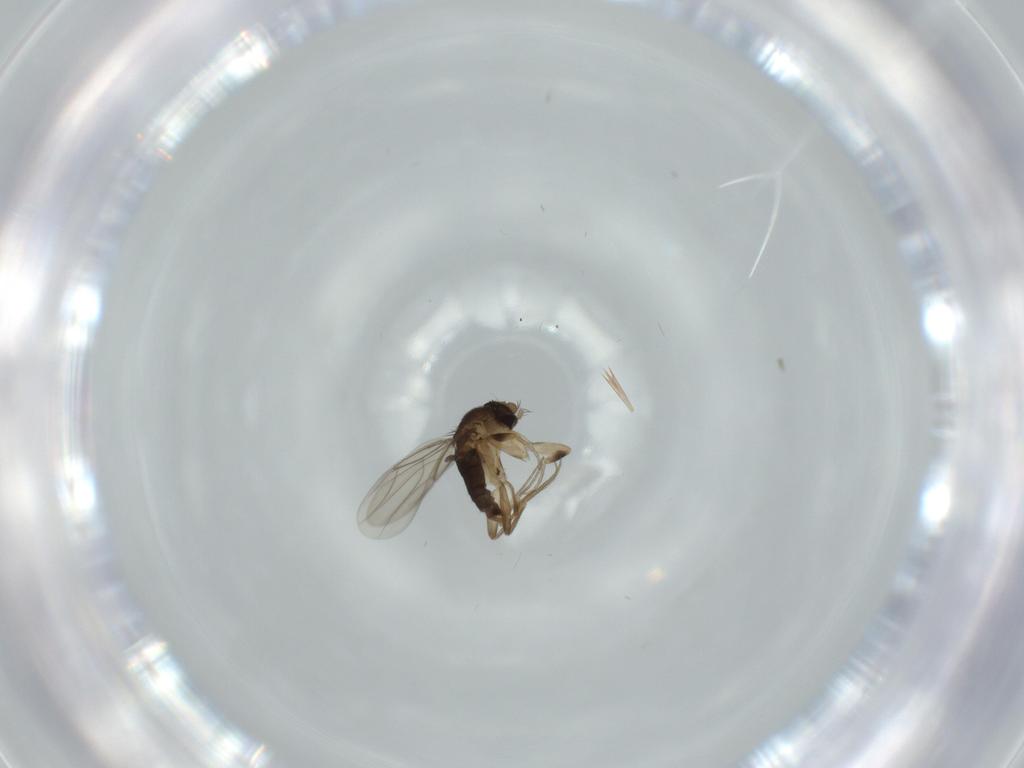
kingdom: Animalia
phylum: Arthropoda
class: Insecta
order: Diptera
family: Phoridae
